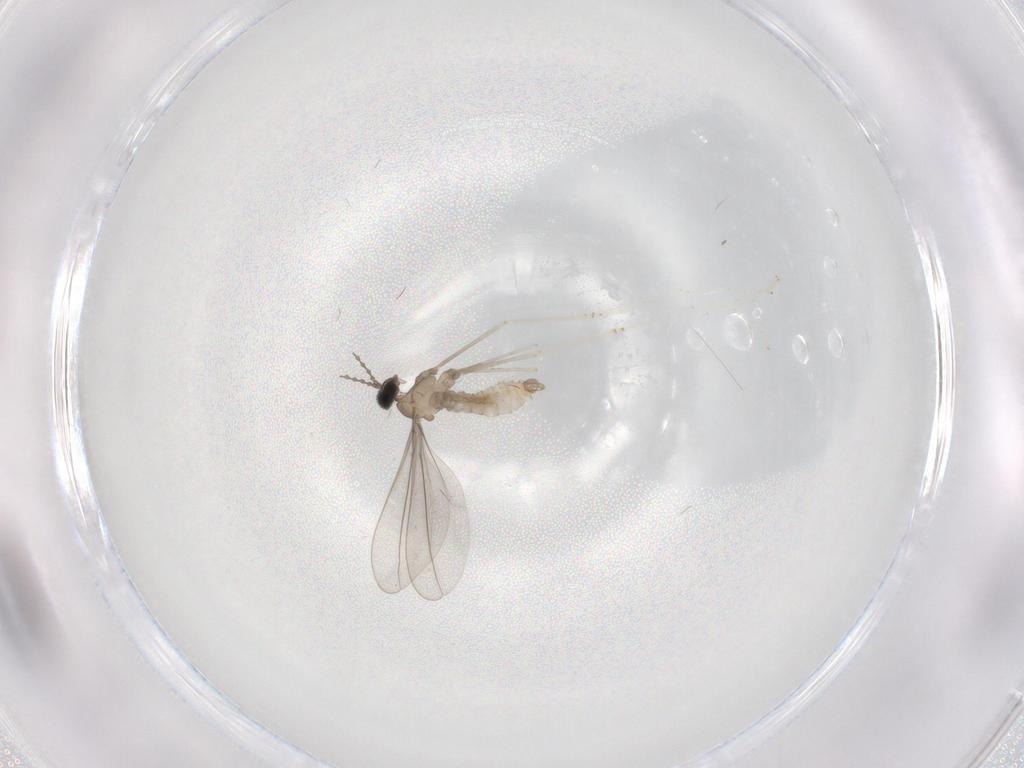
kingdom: Animalia
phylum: Arthropoda
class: Insecta
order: Diptera
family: Cecidomyiidae
